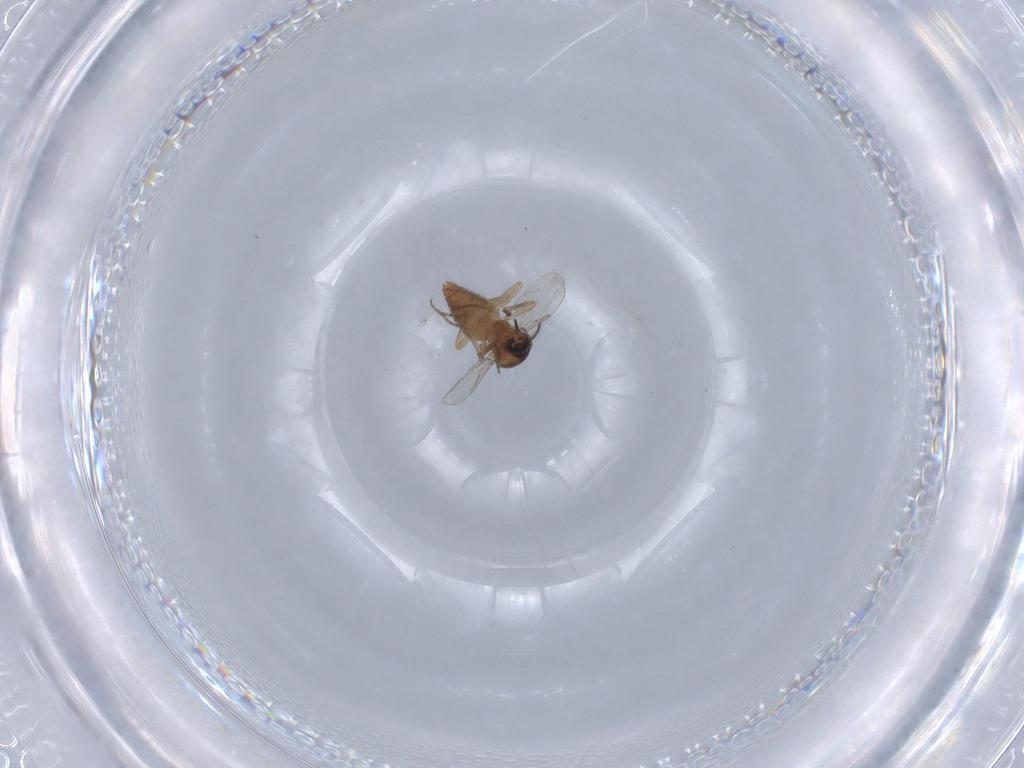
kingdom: Animalia
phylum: Arthropoda
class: Insecta
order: Diptera
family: Ceratopogonidae
